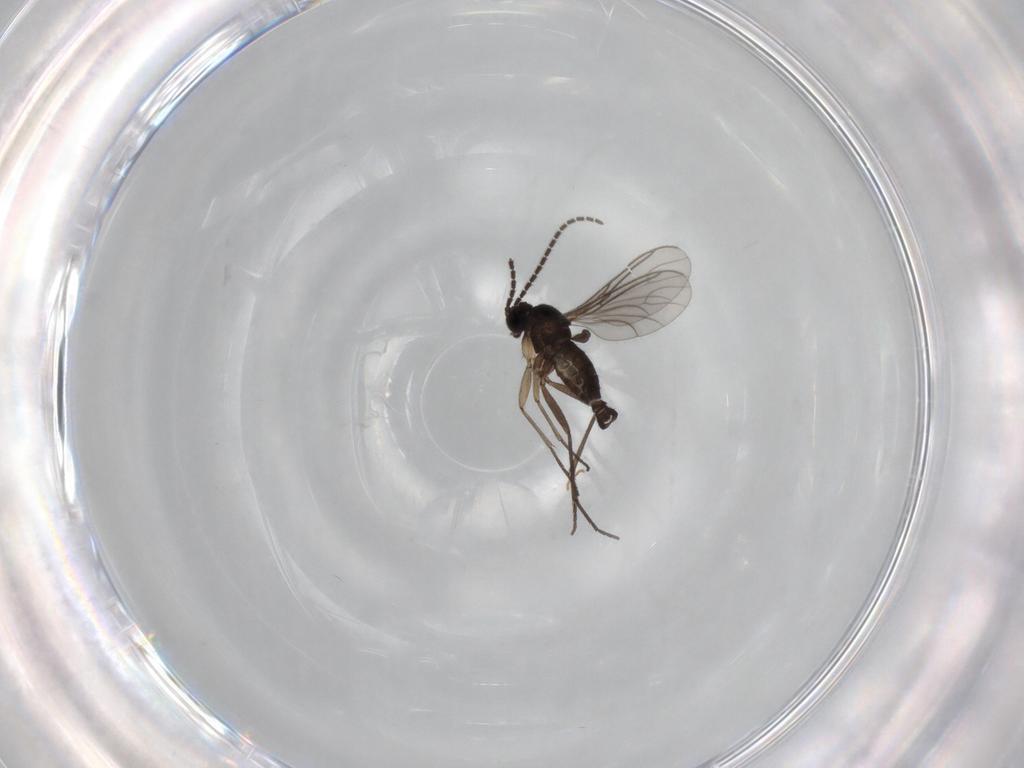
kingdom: Animalia
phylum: Arthropoda
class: Insecta
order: Diptera
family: Sciaridae
